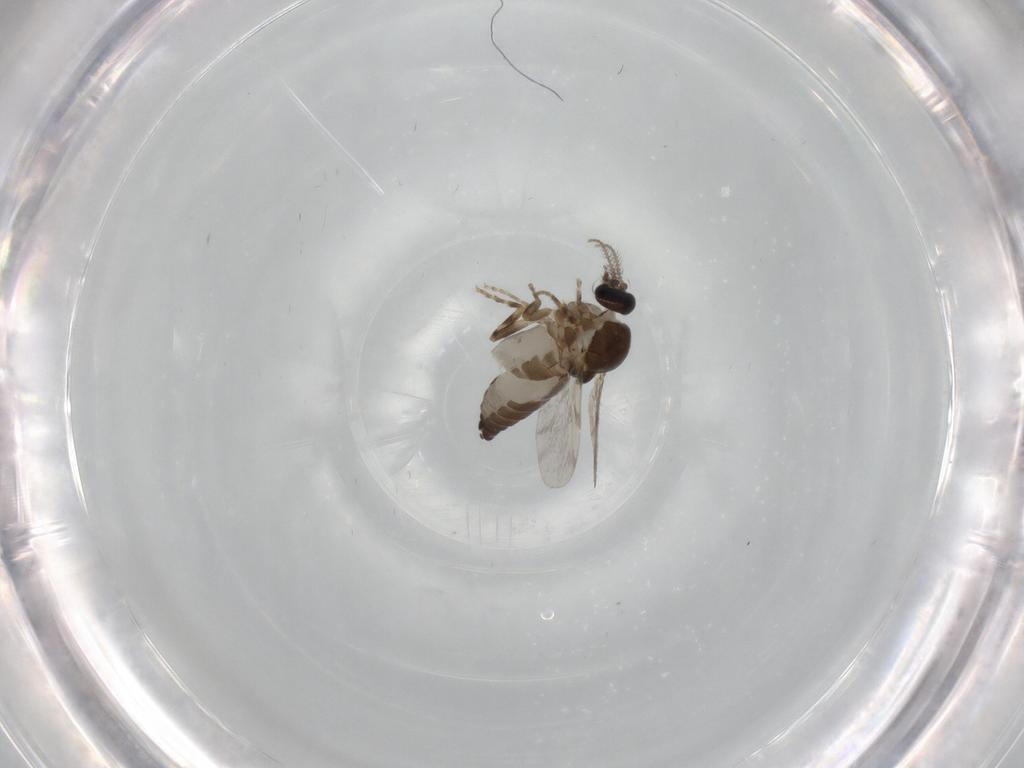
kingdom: Animalia
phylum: Arthropoda
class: Insecta
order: Diptera
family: Ceratopogonidae
